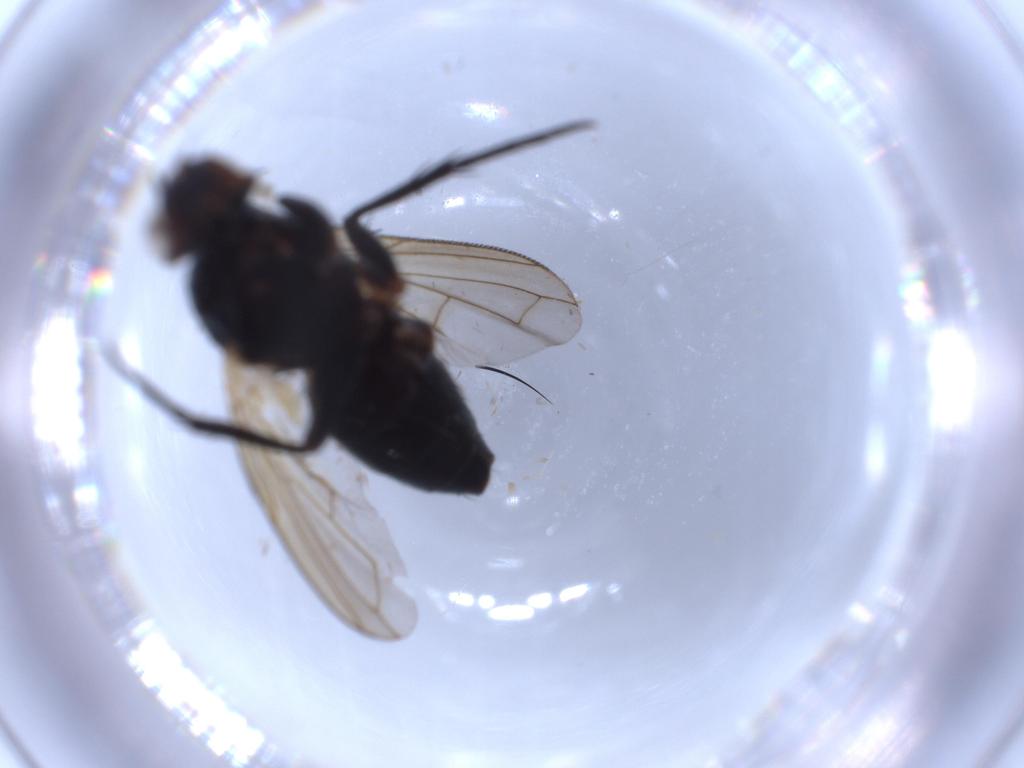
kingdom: Animalia
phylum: Arthropoda
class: Insecta
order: Diptera
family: Cecidomyiidae
